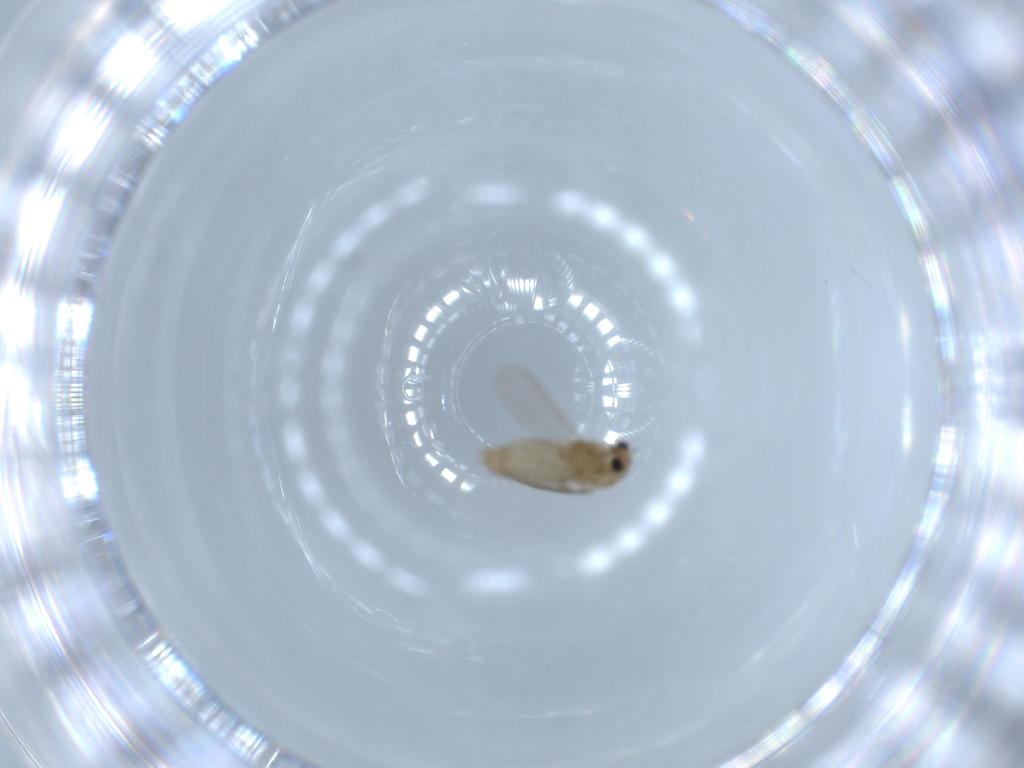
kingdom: Animalia
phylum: Arthropoda
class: Insecta
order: Diptera
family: Chironomidae
